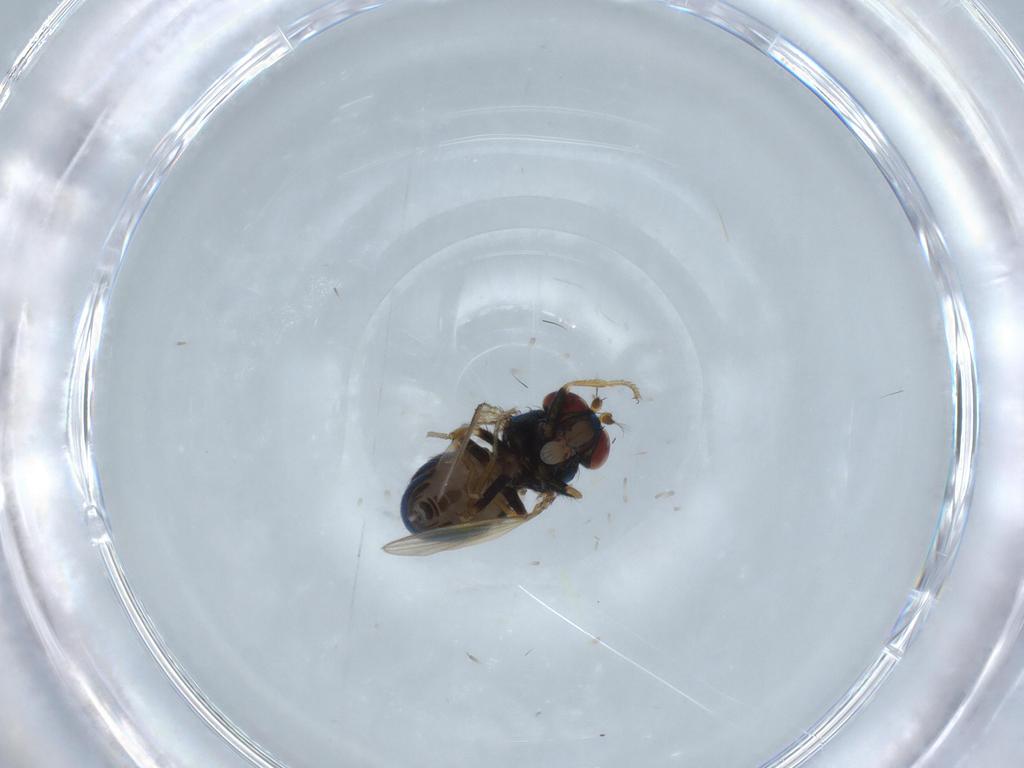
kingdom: Animalia
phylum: Arthropoda
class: Insecta
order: Diptera
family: Ephydridae
